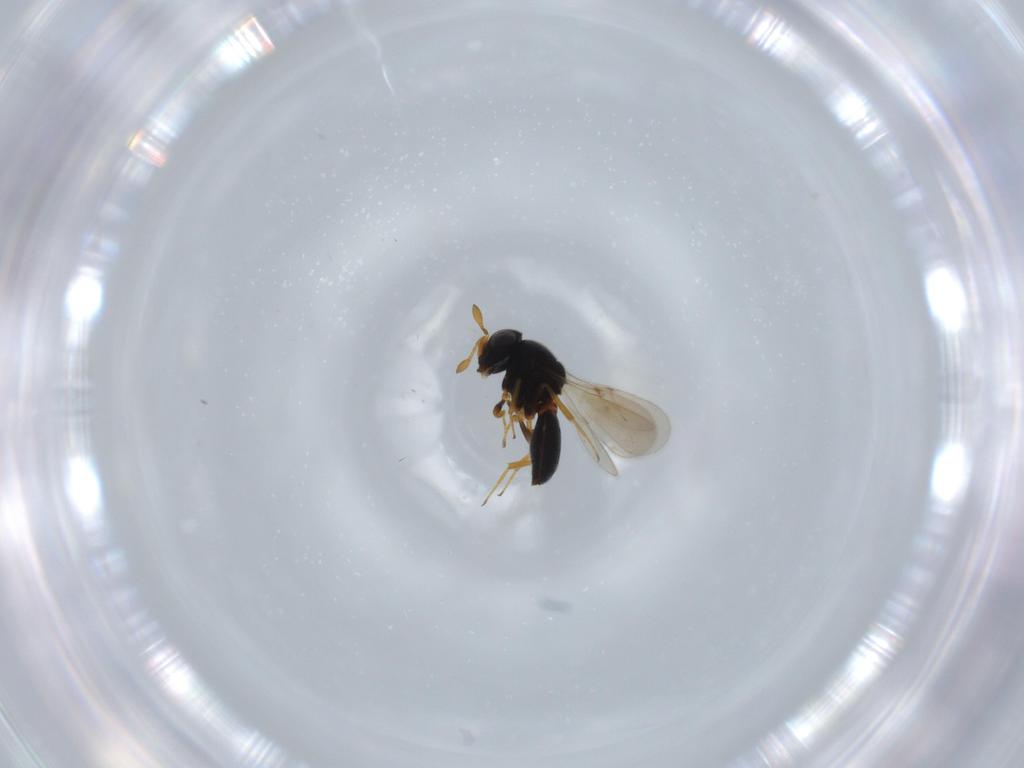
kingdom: Animalia
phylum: Arthropoda
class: Insecta
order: Hymenoptera
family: Scelionidae
